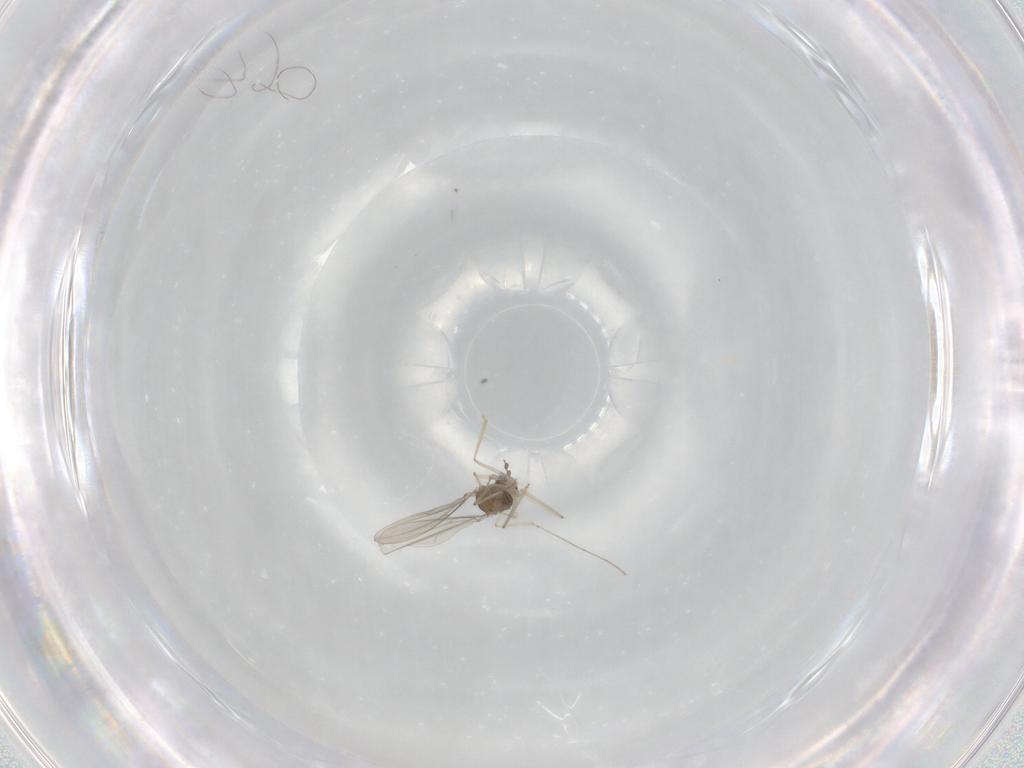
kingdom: Animalia
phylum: Arthropoda
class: Insecta
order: Diptera
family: Cecidomyiidae
